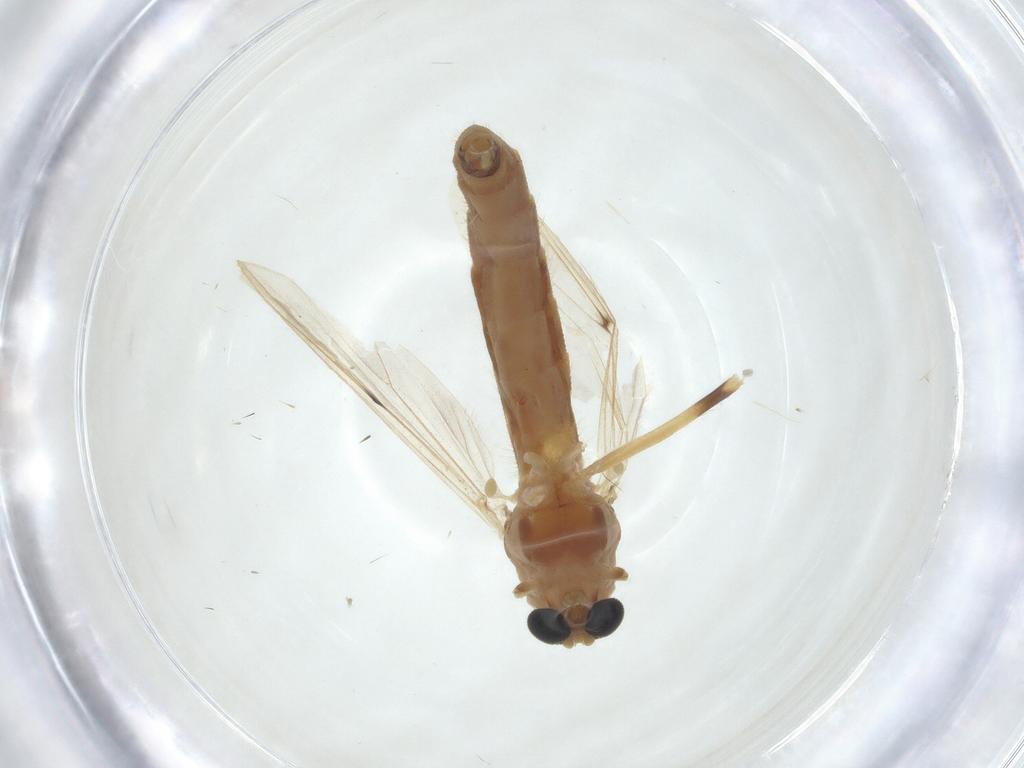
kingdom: Animalia
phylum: Arthropoda
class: Insecta
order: Diptera
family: Chironomidae
